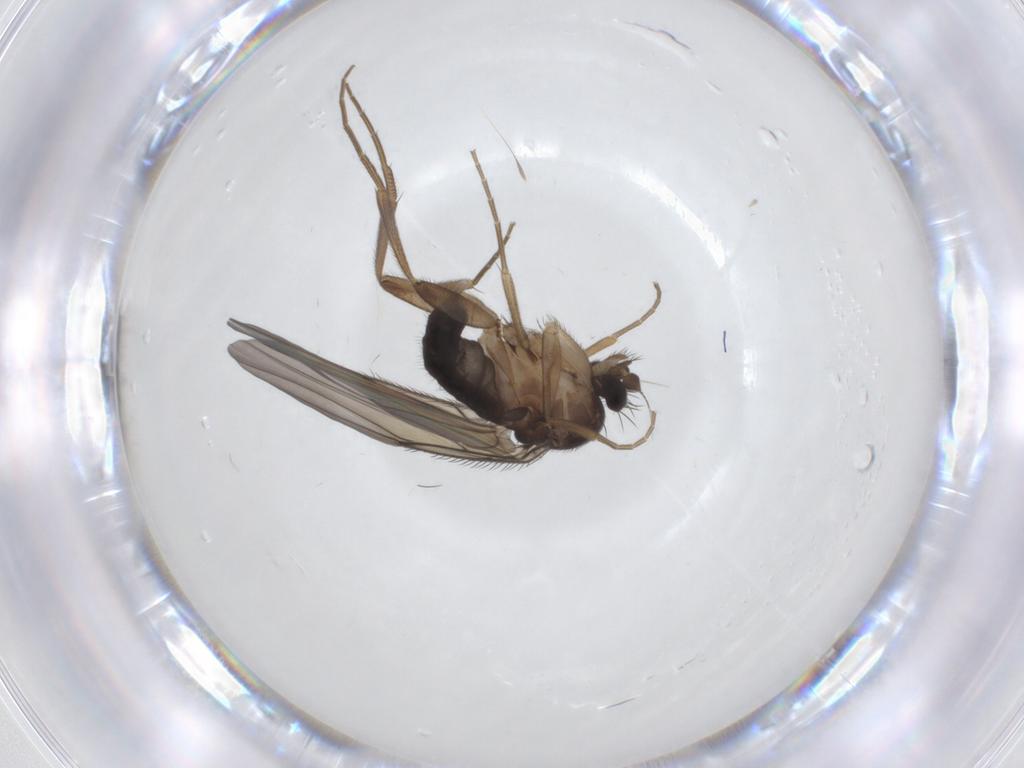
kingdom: Animalia
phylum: Arthropoda
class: Insecta
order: Diptera
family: Phoridae
